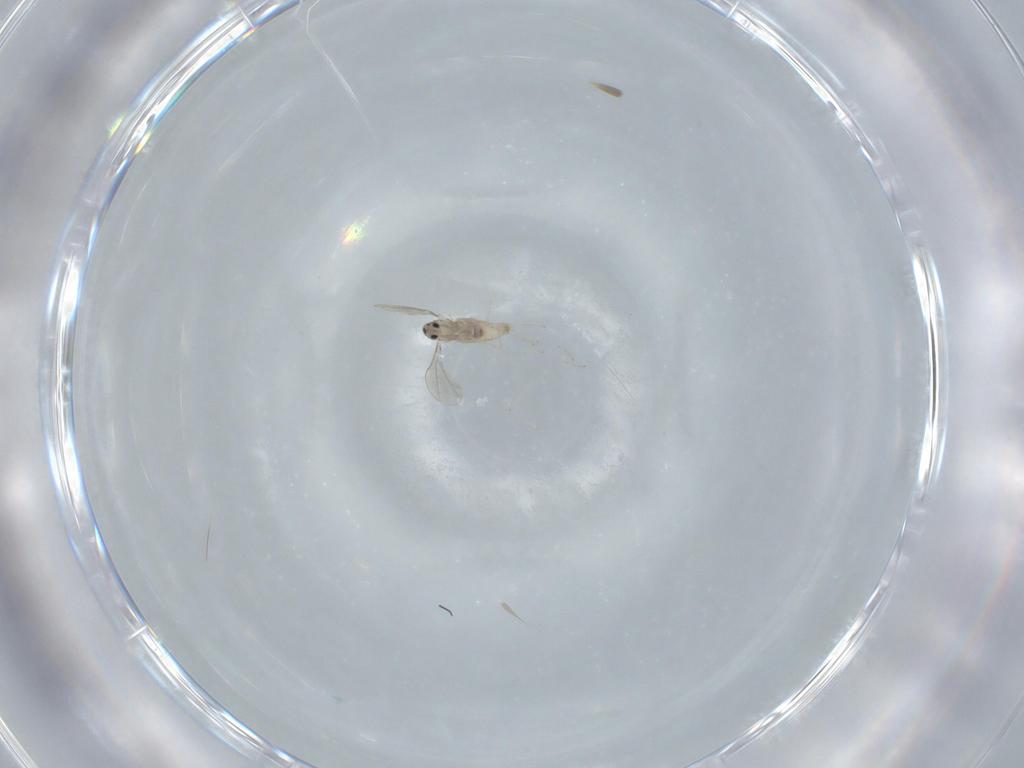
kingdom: Animalia
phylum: Arthropoda
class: Insecta
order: Diptera
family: Cecidomyiidae
